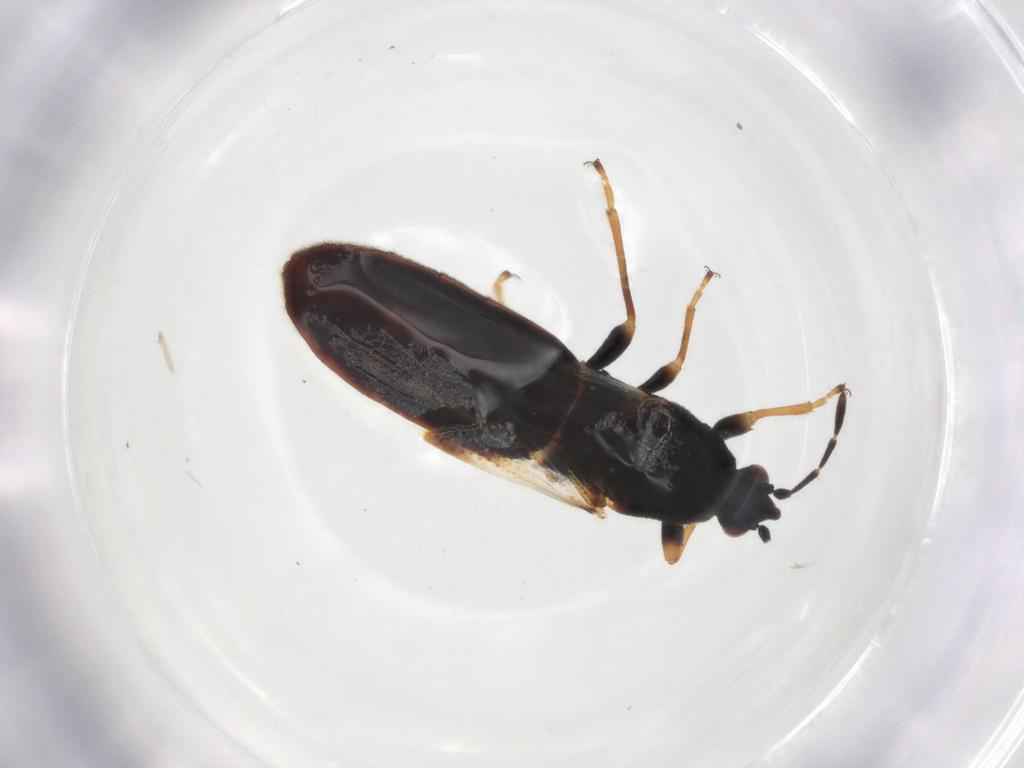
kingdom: Animalia
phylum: Arthropoda
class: Insecta
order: Hemiptera
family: Blissidae
